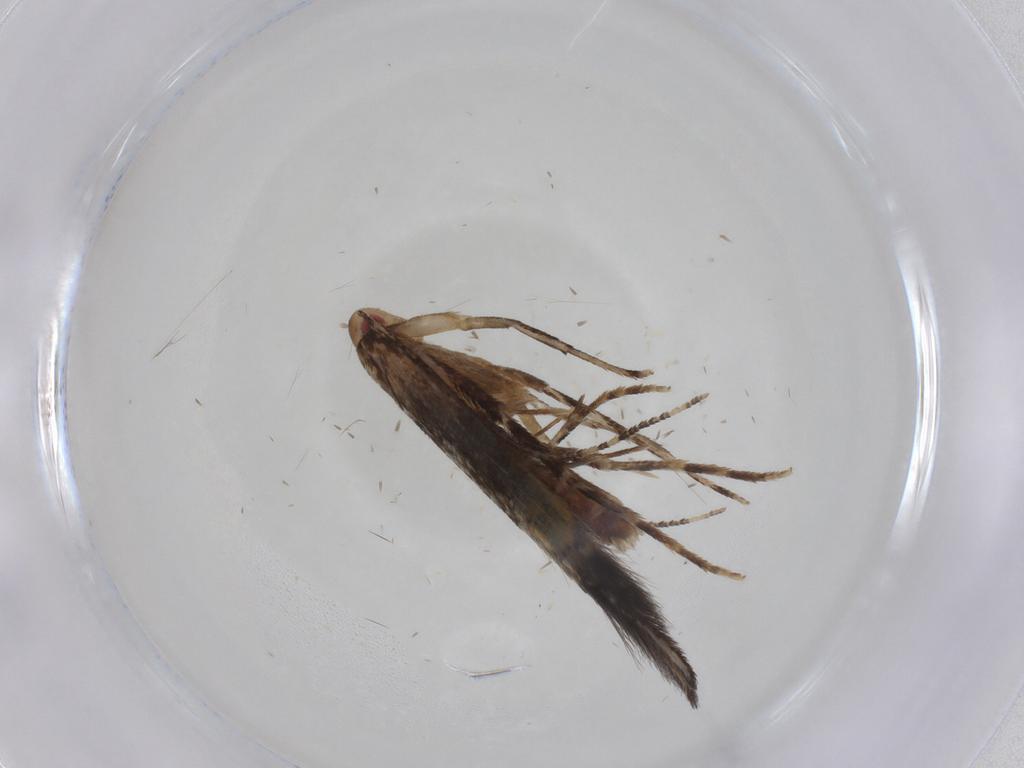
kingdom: Animalia
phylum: Arthropoda
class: Insecta
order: Lepidoptera
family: Cosmopterigidae
